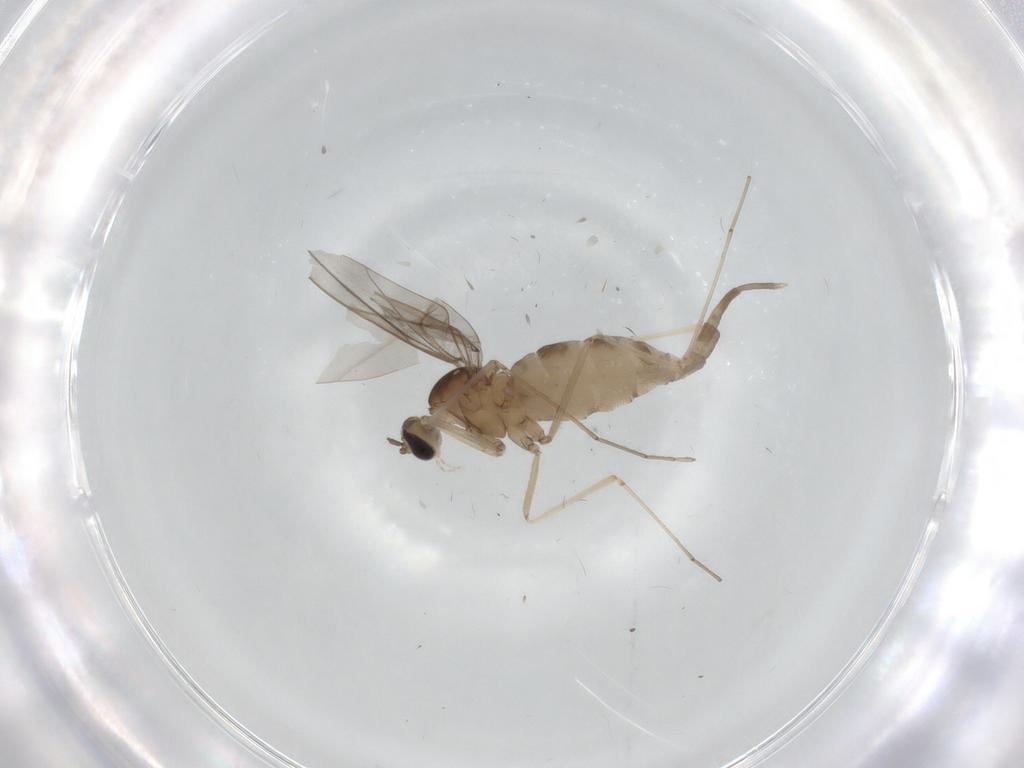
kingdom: Animalia
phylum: Arthropoda
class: Insecta
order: Diptera
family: Cecidomyiidae
